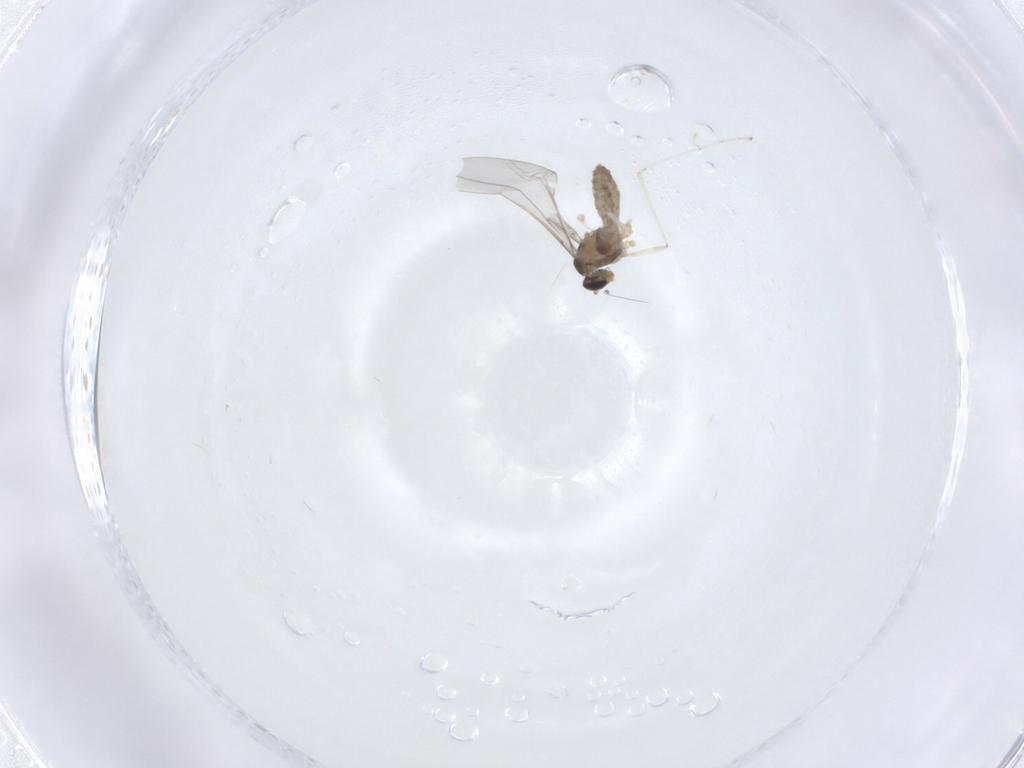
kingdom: Animalia
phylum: Arthropoda
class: Insecta
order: Diptera
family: Cecidomyiidae
